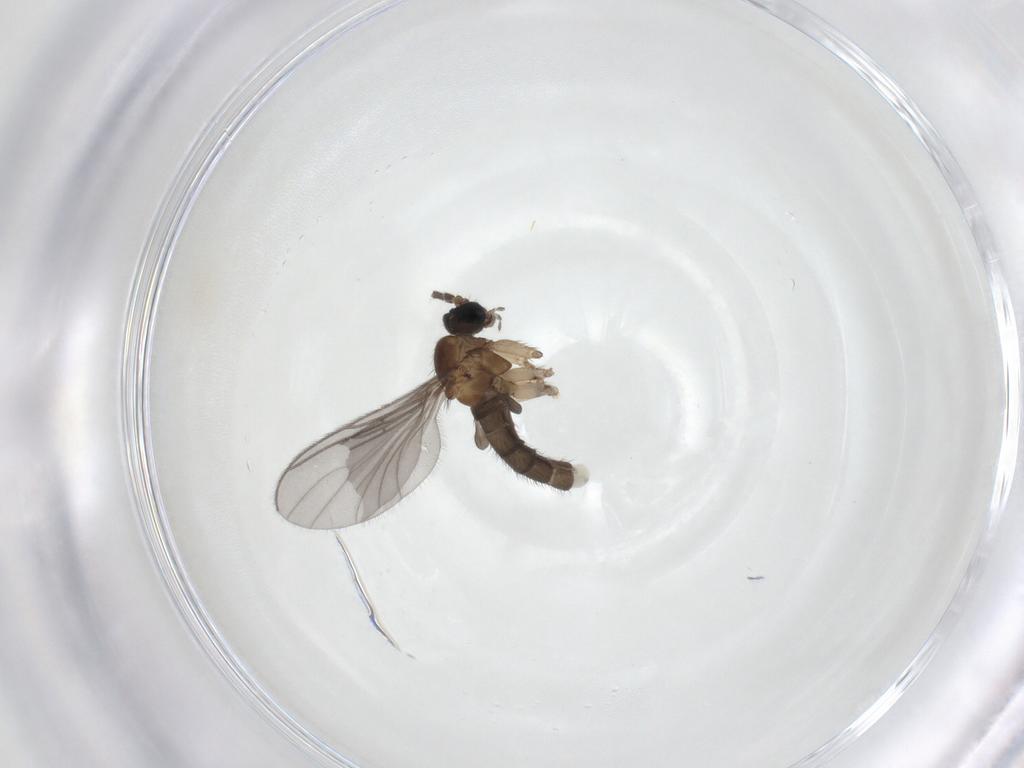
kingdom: Animalia
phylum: Arthropoda
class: Insecta
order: Diptera
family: Sciaridae
